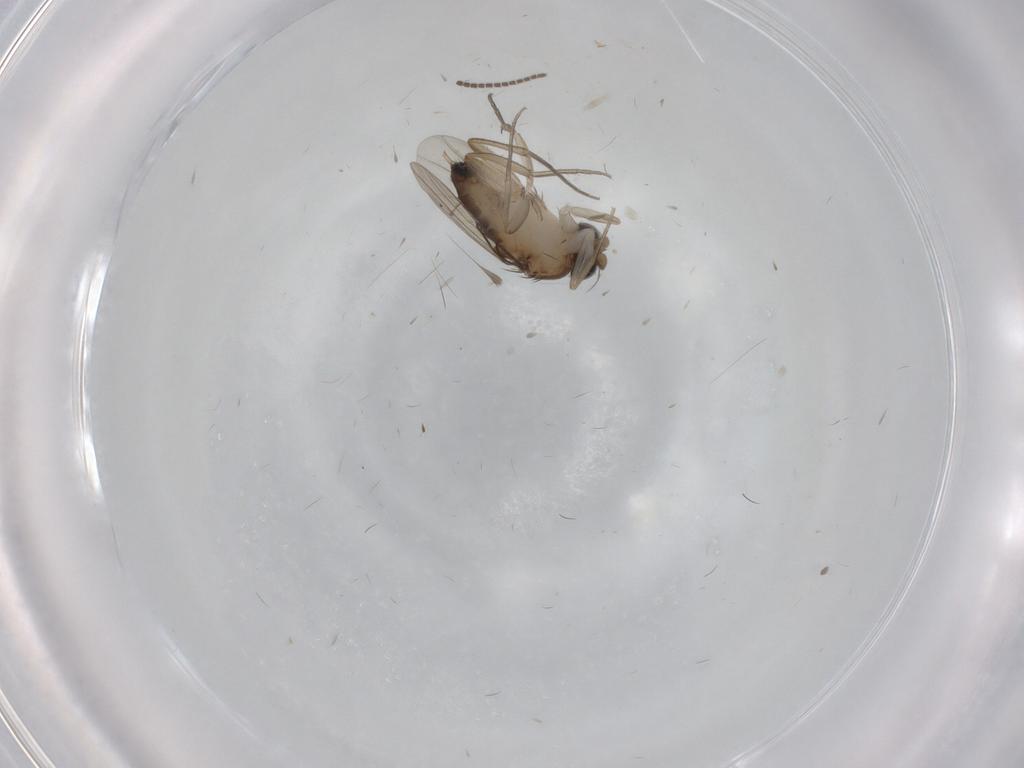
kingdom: Animalia
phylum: Arthropoda
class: Insecta
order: Diptera
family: Phoridae
